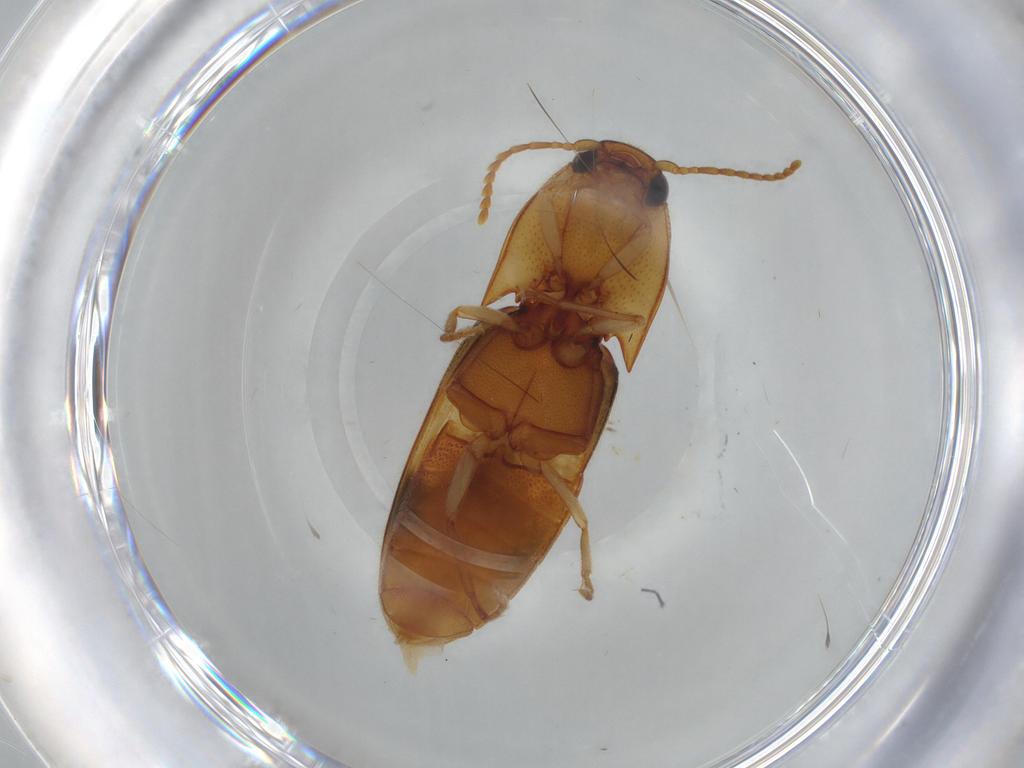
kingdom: Animalia
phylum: Arthropoda
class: Insecta
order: Coleoptera
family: Elateridae
